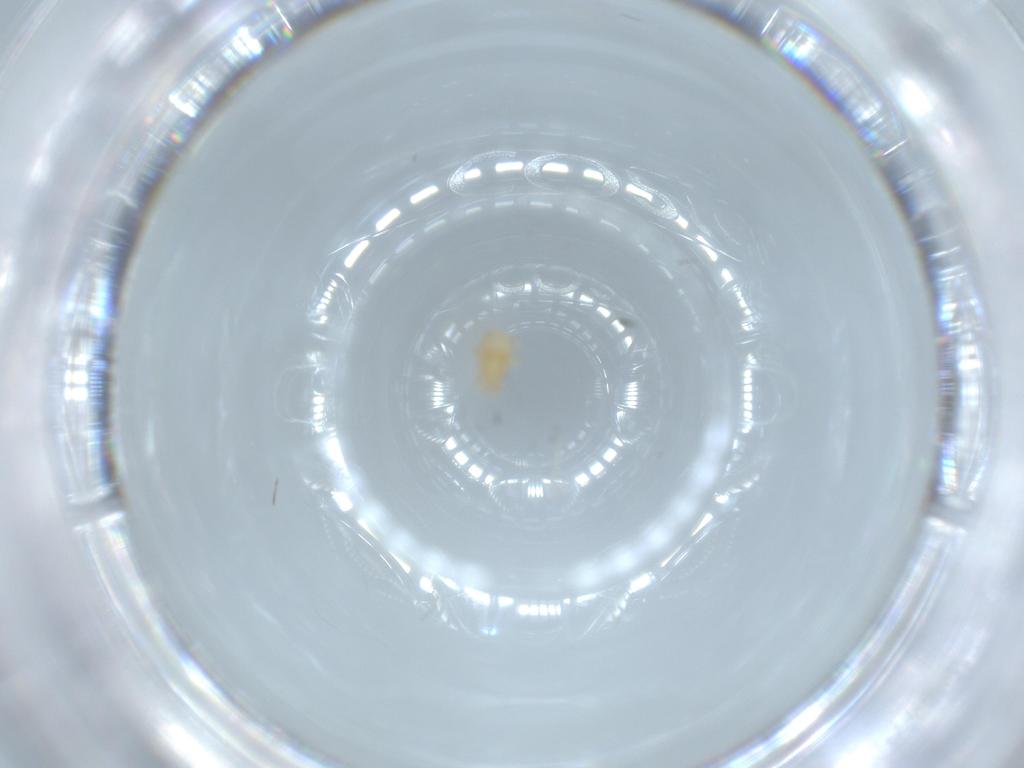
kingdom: Animalia
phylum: Arthropoda
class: Arachnida
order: Mesostigmata
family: Melicharidae
